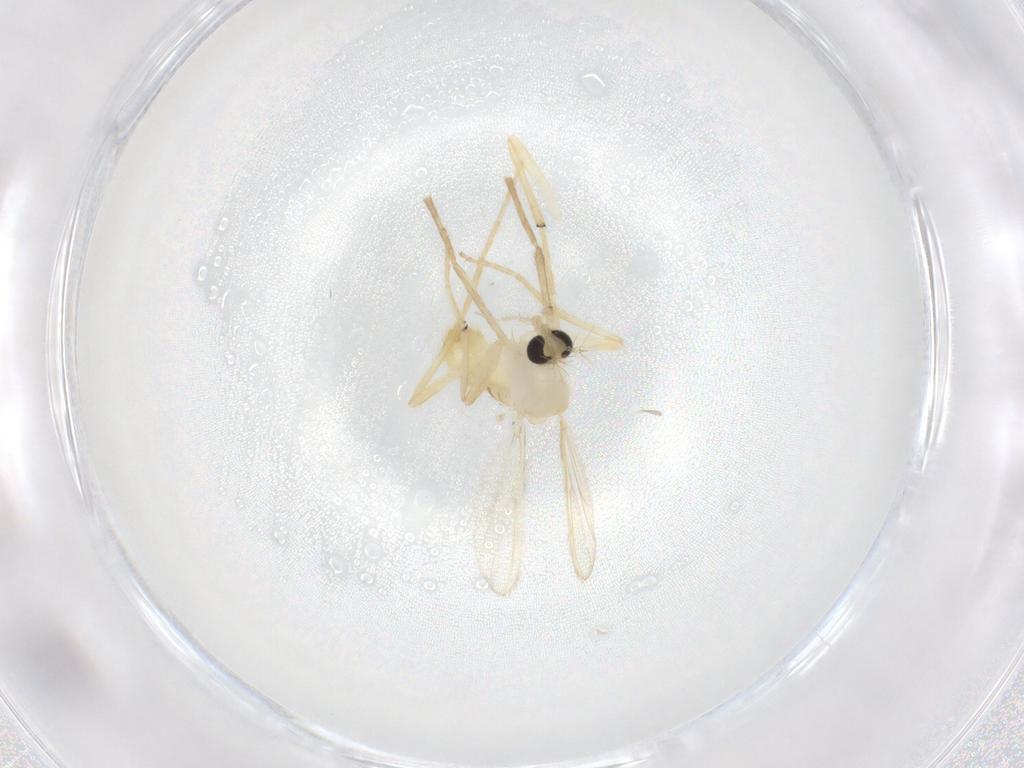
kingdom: Animalia
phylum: Arthropoda
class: Insecta
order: Diptera
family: Chironomidae
